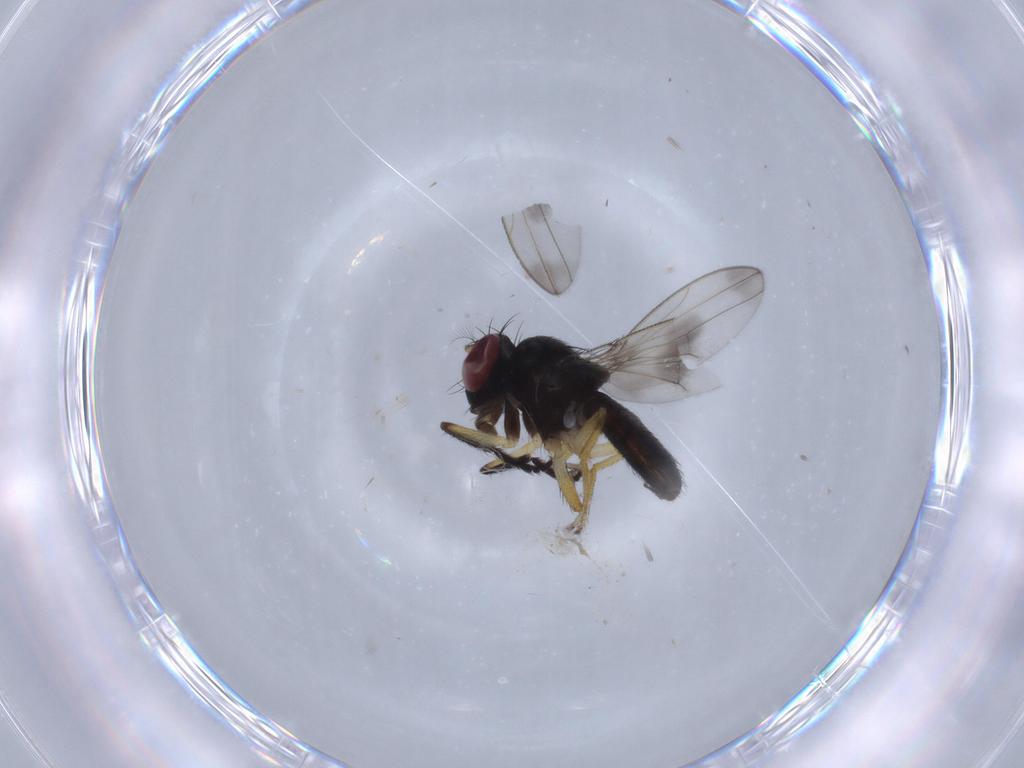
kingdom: Animalia
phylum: Arthropoda
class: Insecta
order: Diptera
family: Ephydridae
